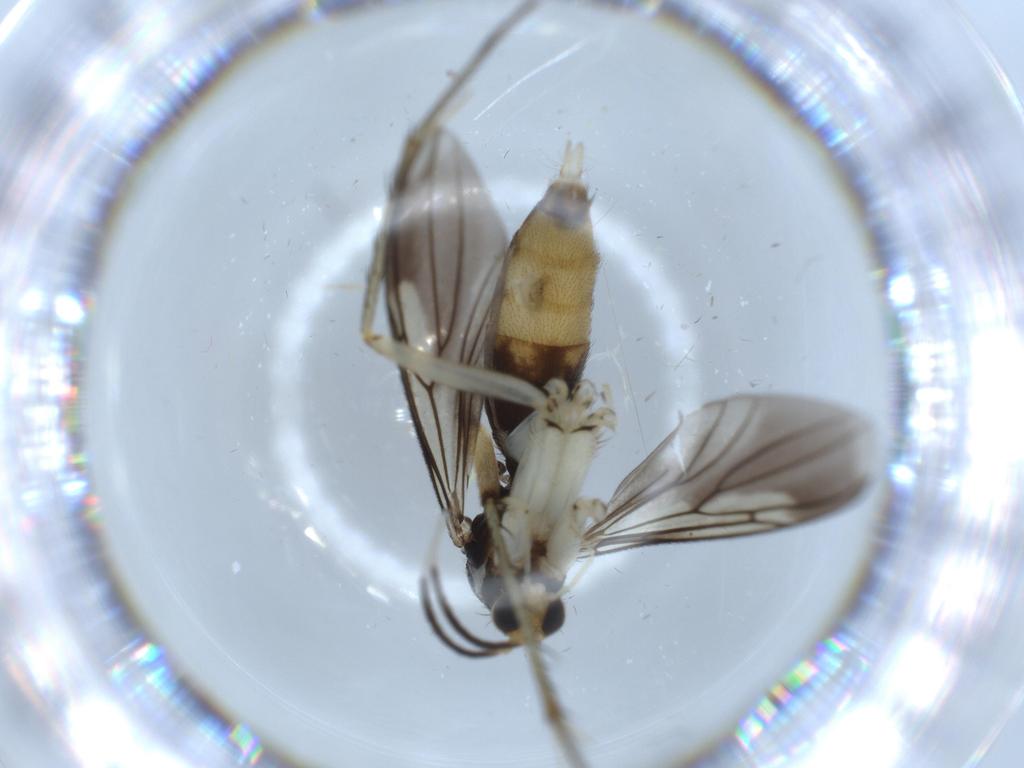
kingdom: Animalia
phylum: Arthropoda
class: Insecta
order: Diptera
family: Mycetophilidae
